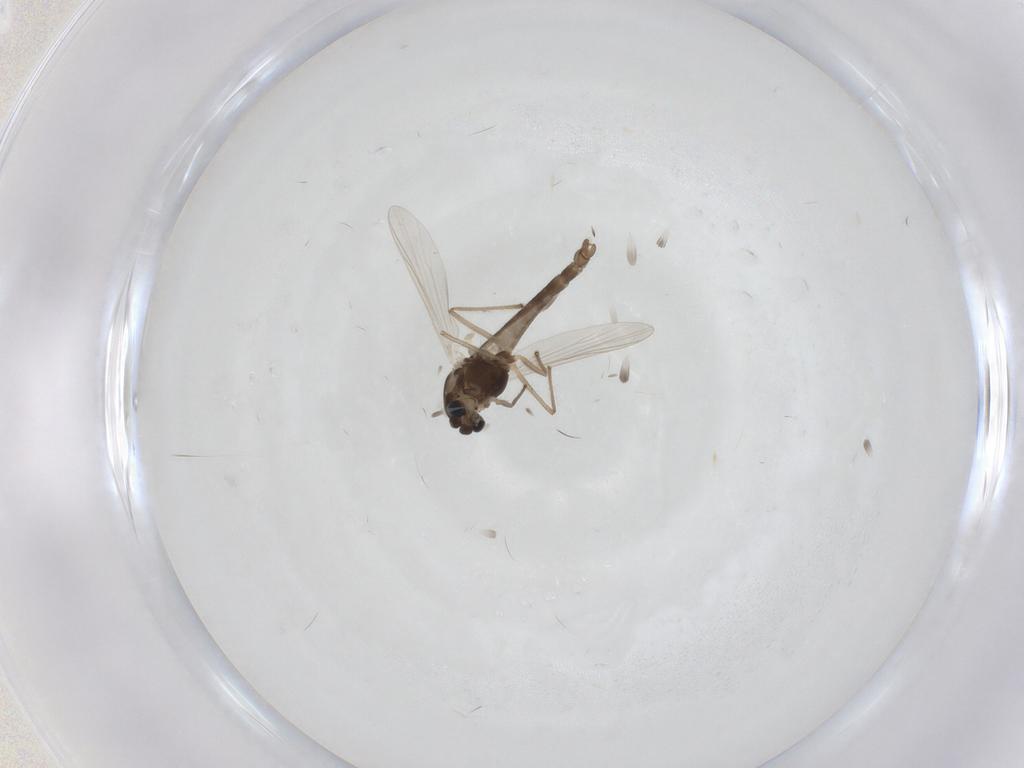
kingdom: Animalia
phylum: Arthropoda
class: Insecta
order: Diptera
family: Chironomidae
